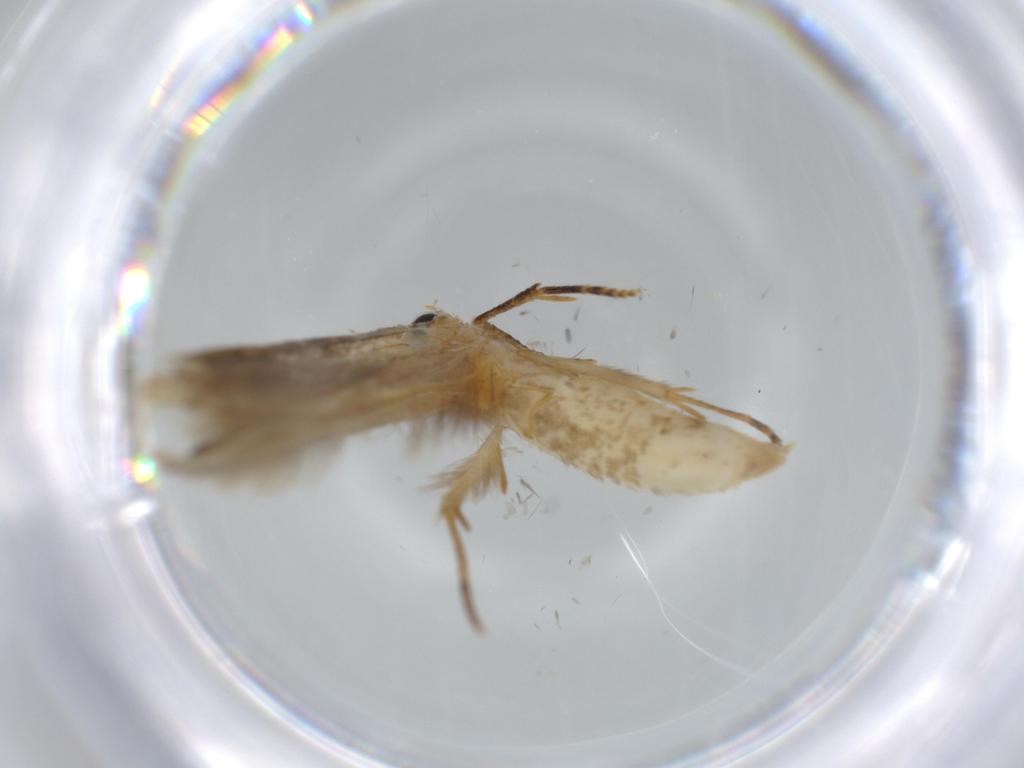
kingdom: Animalia
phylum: Arthropoda
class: Insecta
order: Lepidoptera
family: Cosmopterigidae
